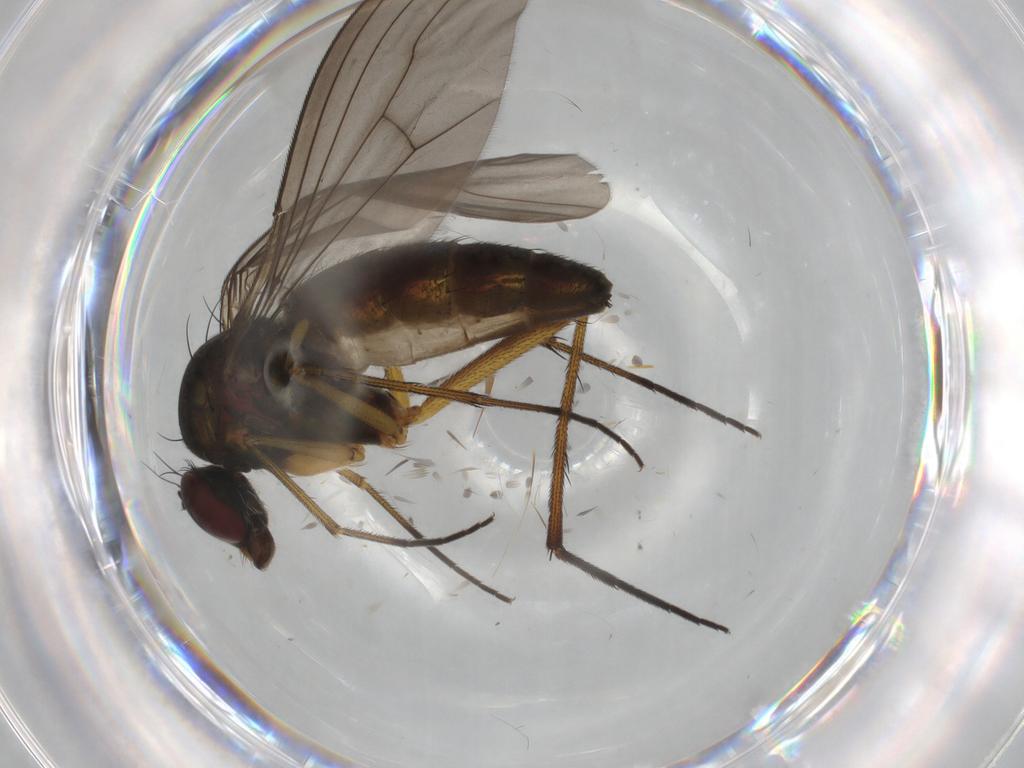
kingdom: Animalia
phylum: Arthropoda
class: Insecta
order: Diptera
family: Dolichopodidae
